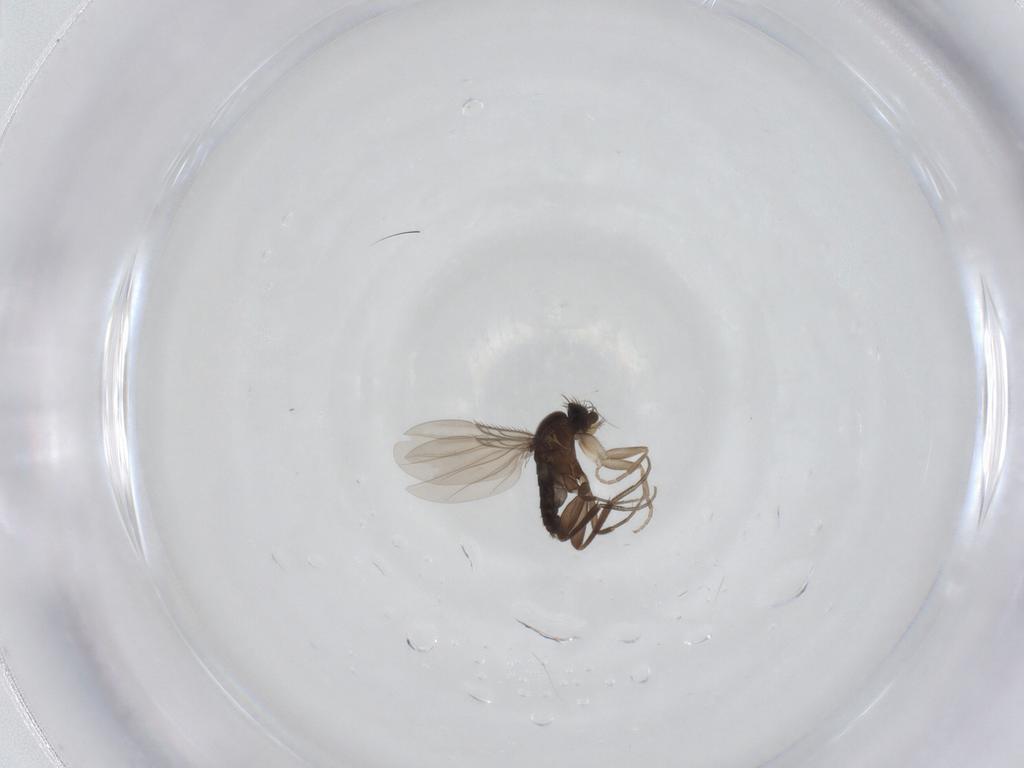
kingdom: Animalia
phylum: Arthropoda
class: Insecta
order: Diptera
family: Phoridae
